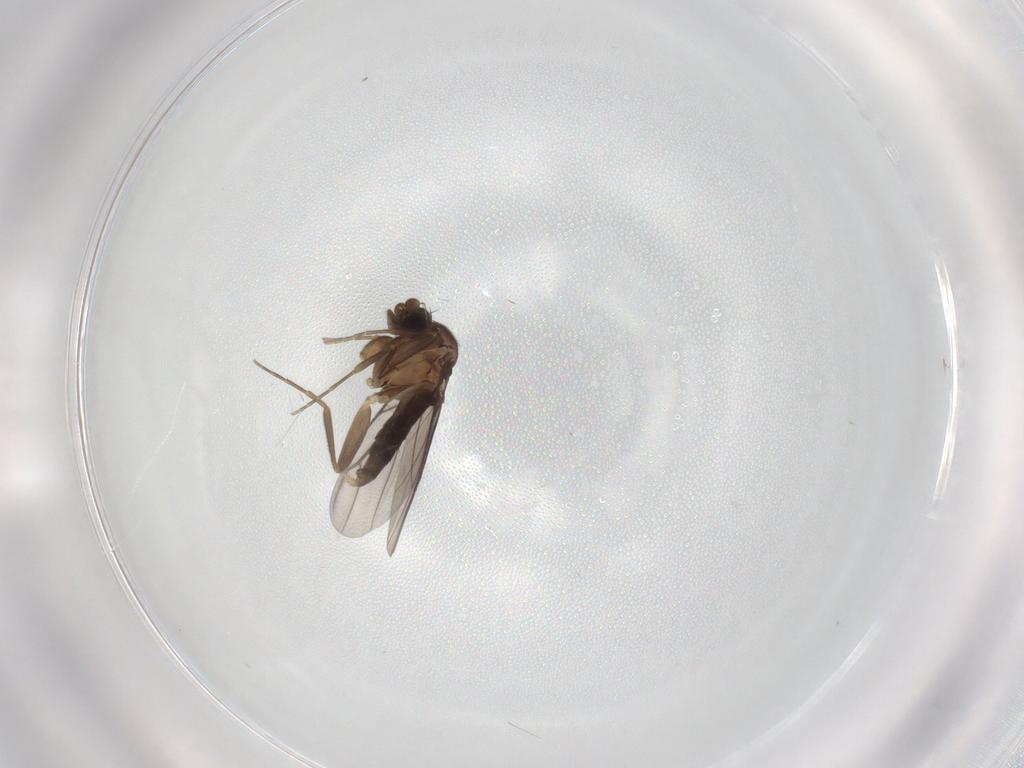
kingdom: Animalia
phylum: Arthropoda
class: Insecta
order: Diptera
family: Phoridae
